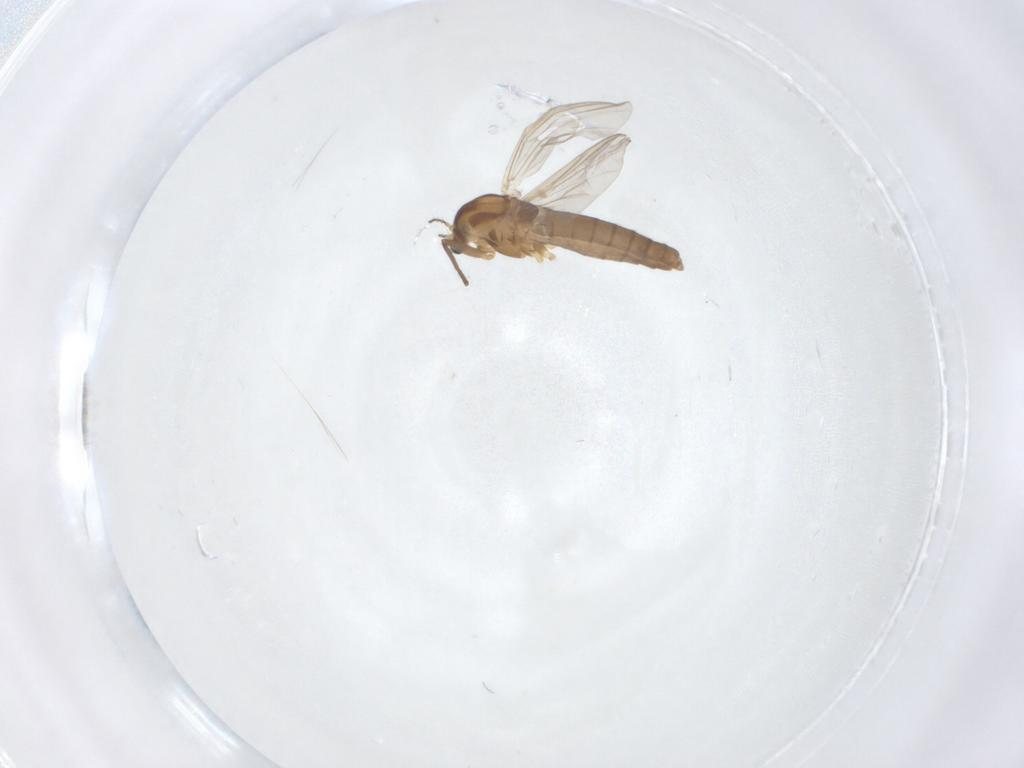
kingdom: Animalia
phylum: Arthropoda
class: Insecta
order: Diptera
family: Chironomidae
